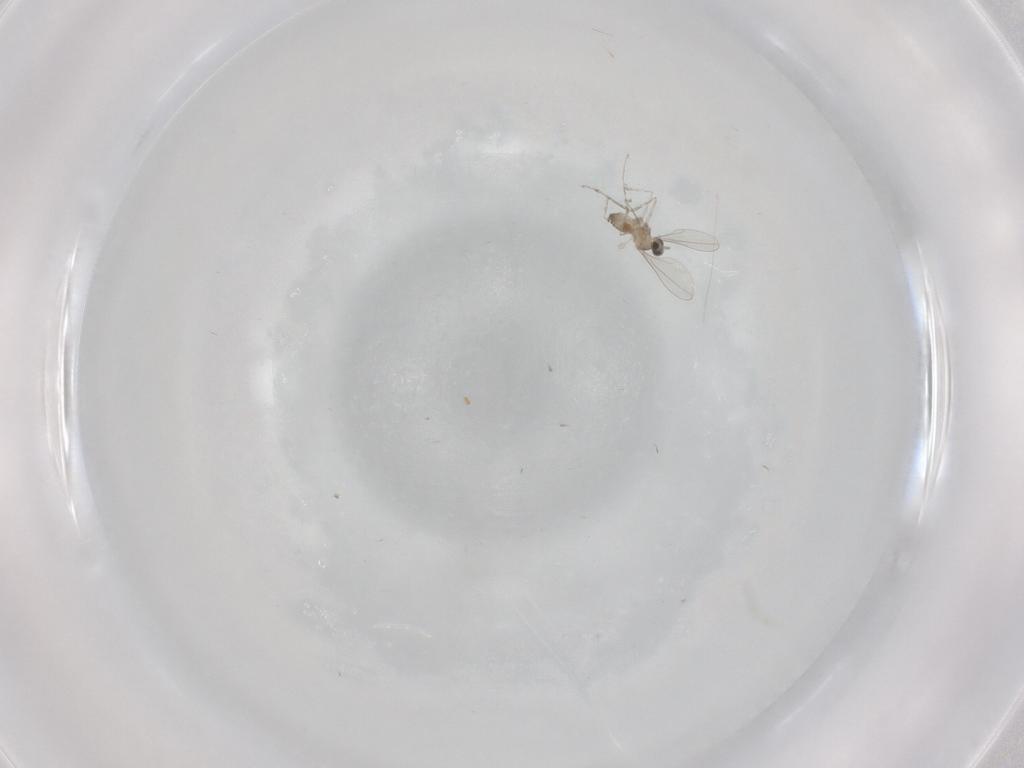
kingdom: Animalia
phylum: Arthropoda
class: Insecta
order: Diptera
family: Cecidomyiidae
